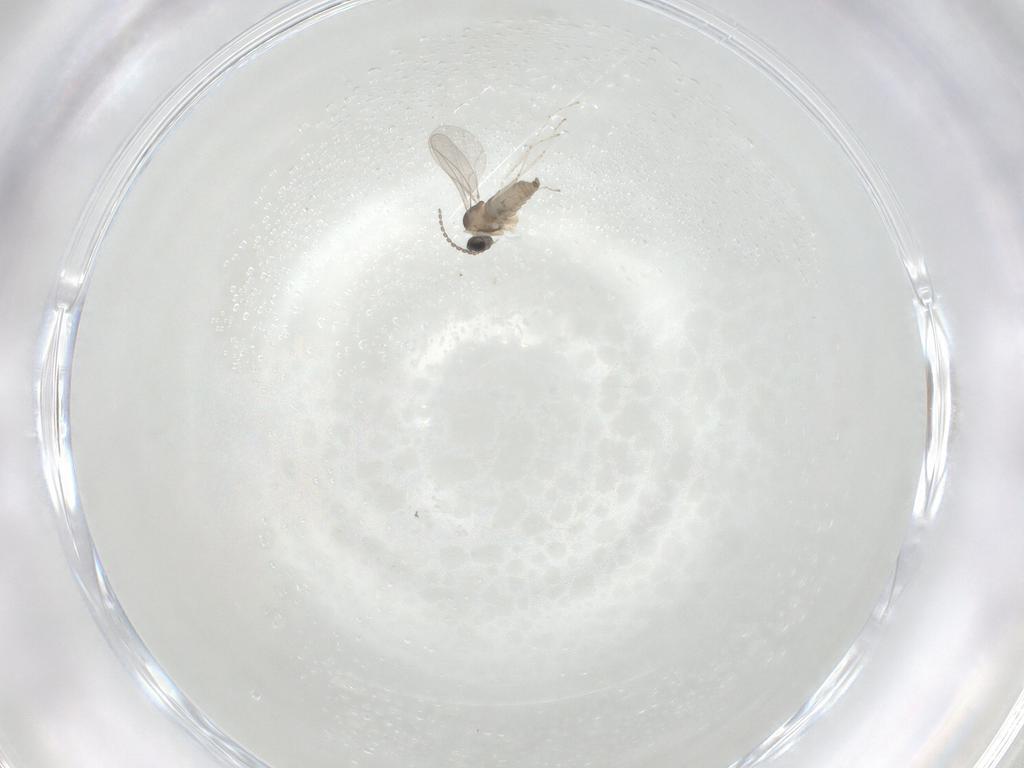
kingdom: Animalia
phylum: Arthropoda
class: Insecta
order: Diptera
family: Cecidomyiidae
